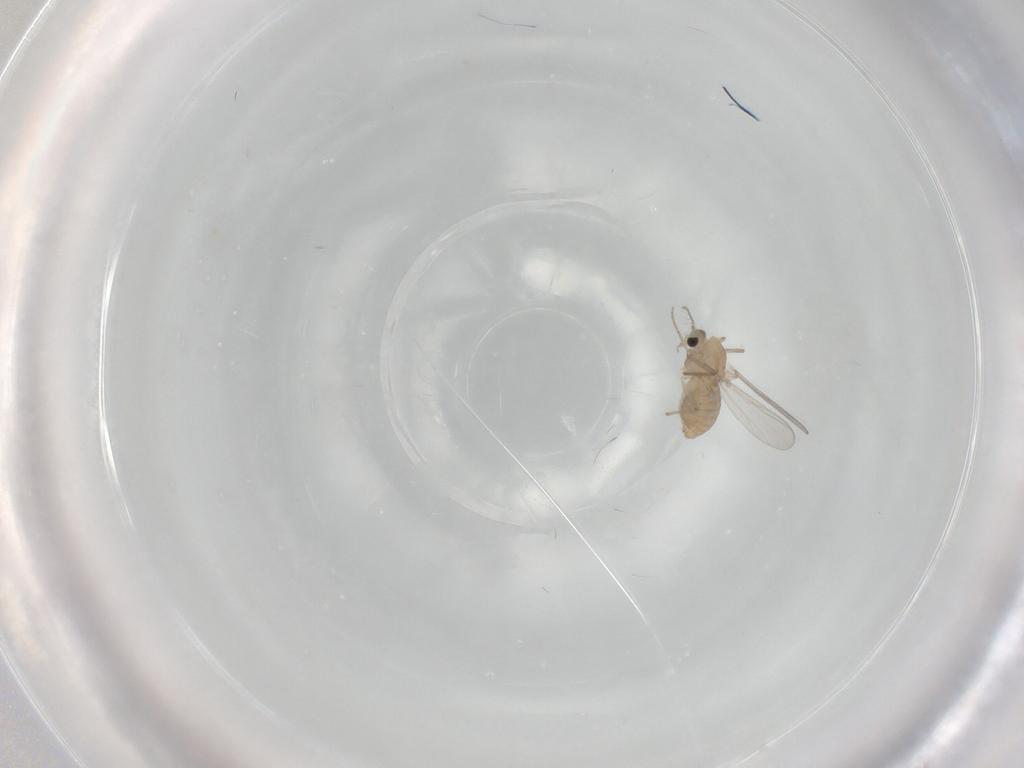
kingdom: Animalia
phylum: Arthropoda
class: Insecta
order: Diptera
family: Chironomidae
